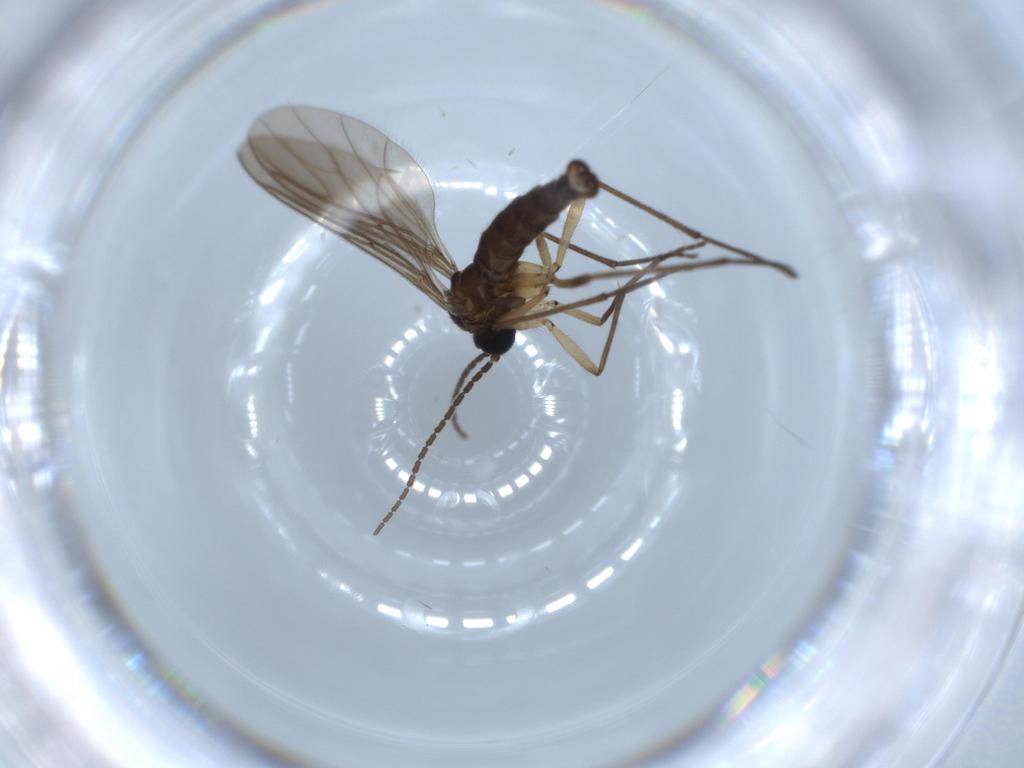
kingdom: Animalia
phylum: Arthropoda
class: Insecta
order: Diptera
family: Sciaridae
